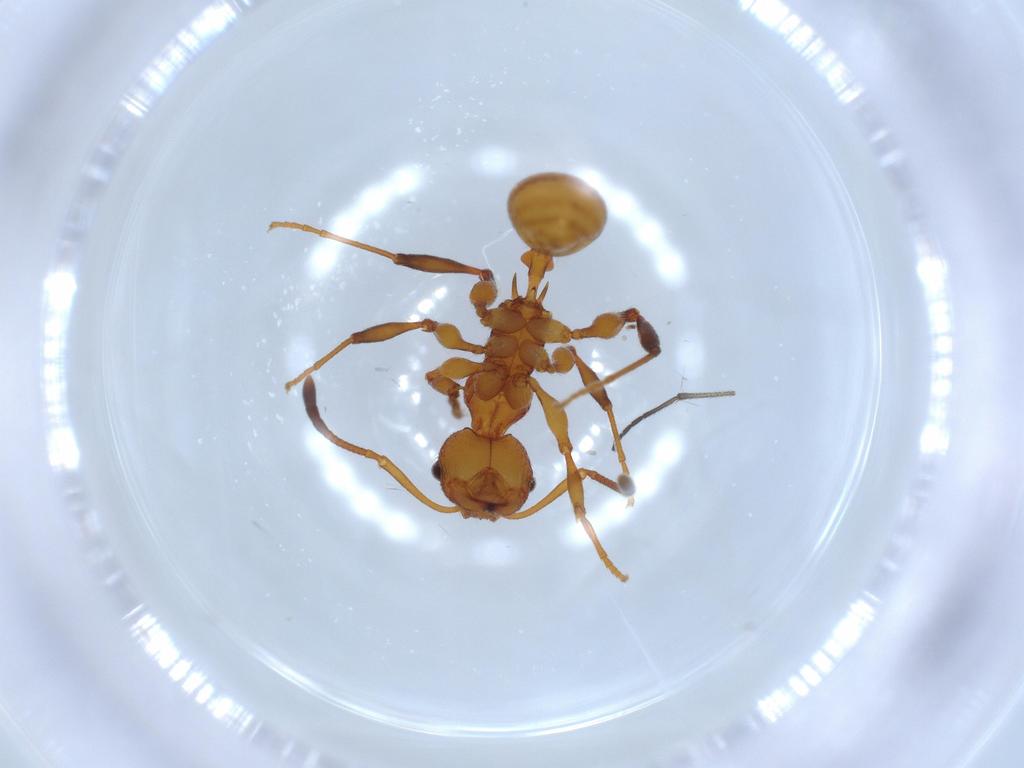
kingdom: Animalia
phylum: Arthropoda
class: Insecta
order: Hymenoptera
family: Formicidae
